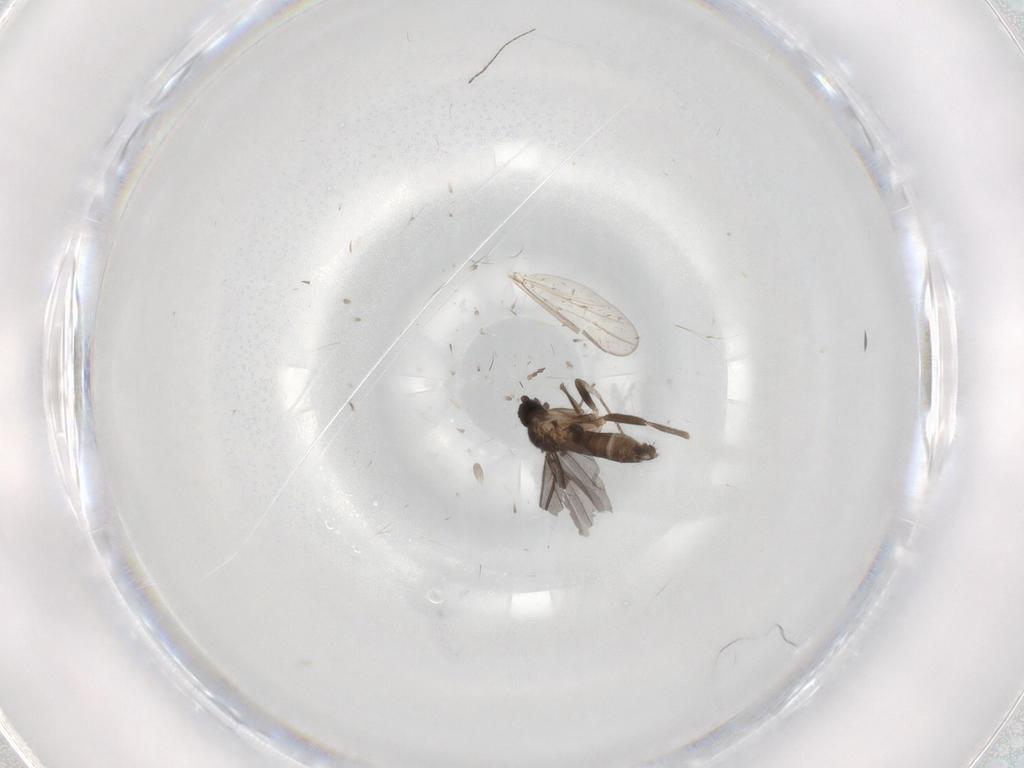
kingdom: Animalia
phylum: Arthropoda
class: Insecta
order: Diptera
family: Cecidomyiidae
